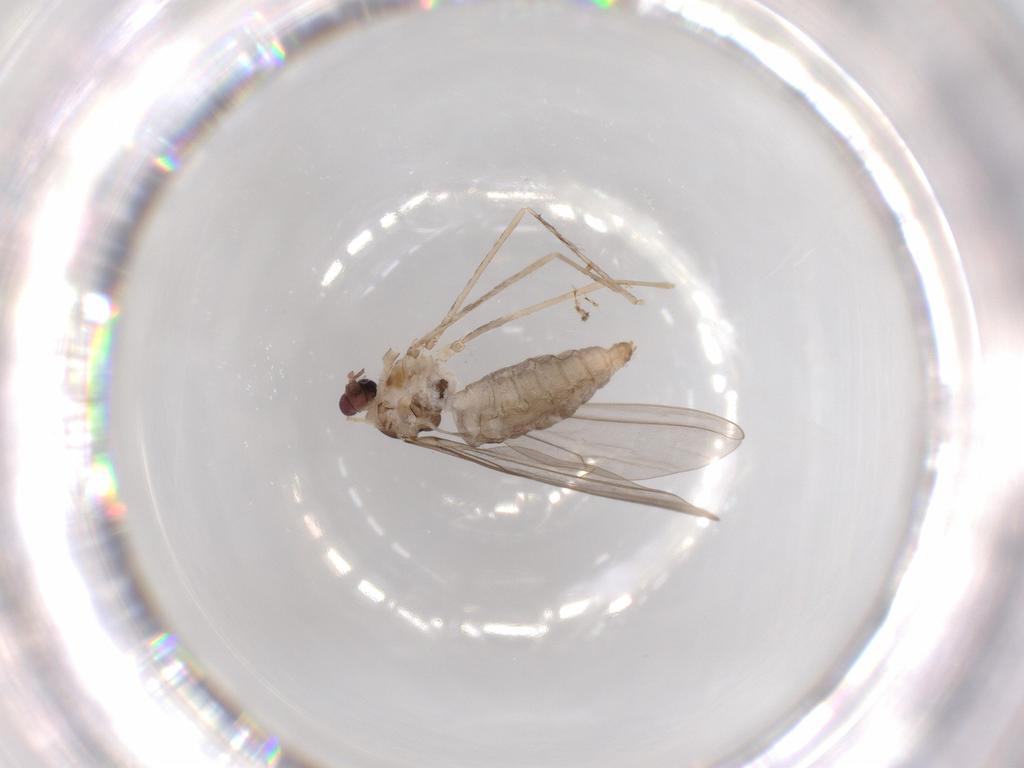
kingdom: Animalia
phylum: Arthropoda
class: Insecta
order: Diptera
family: Cecidomyiidae
